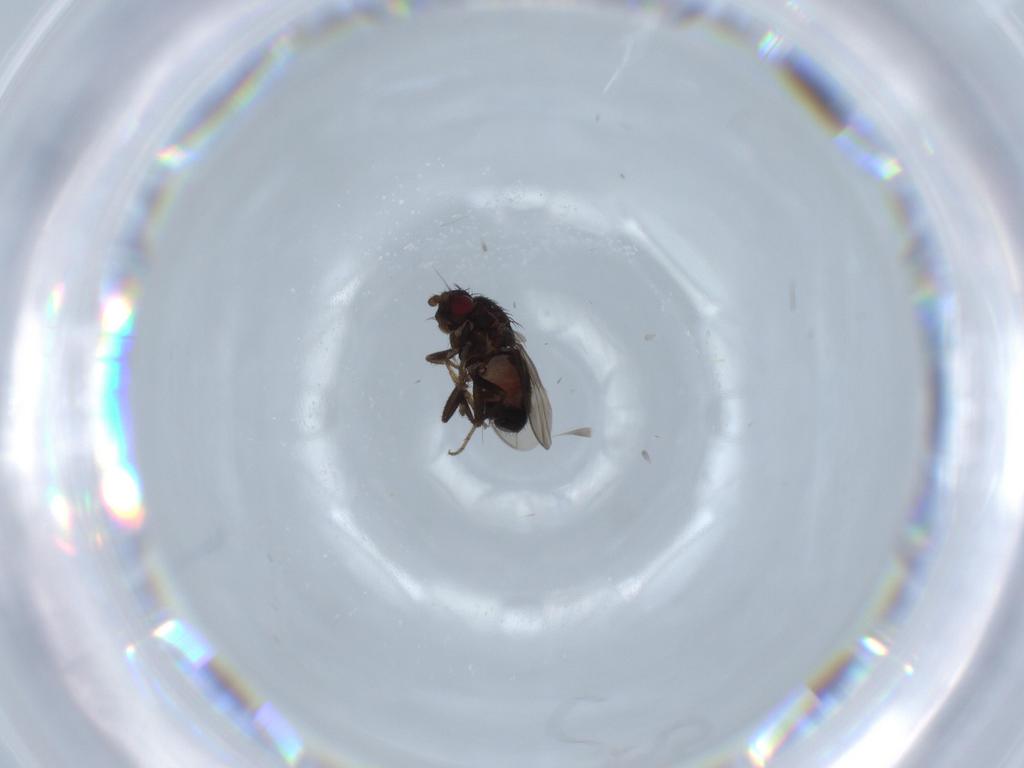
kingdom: Animalia
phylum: Arthropoda
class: Insecta
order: Diptera
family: Sphaeroceridae
